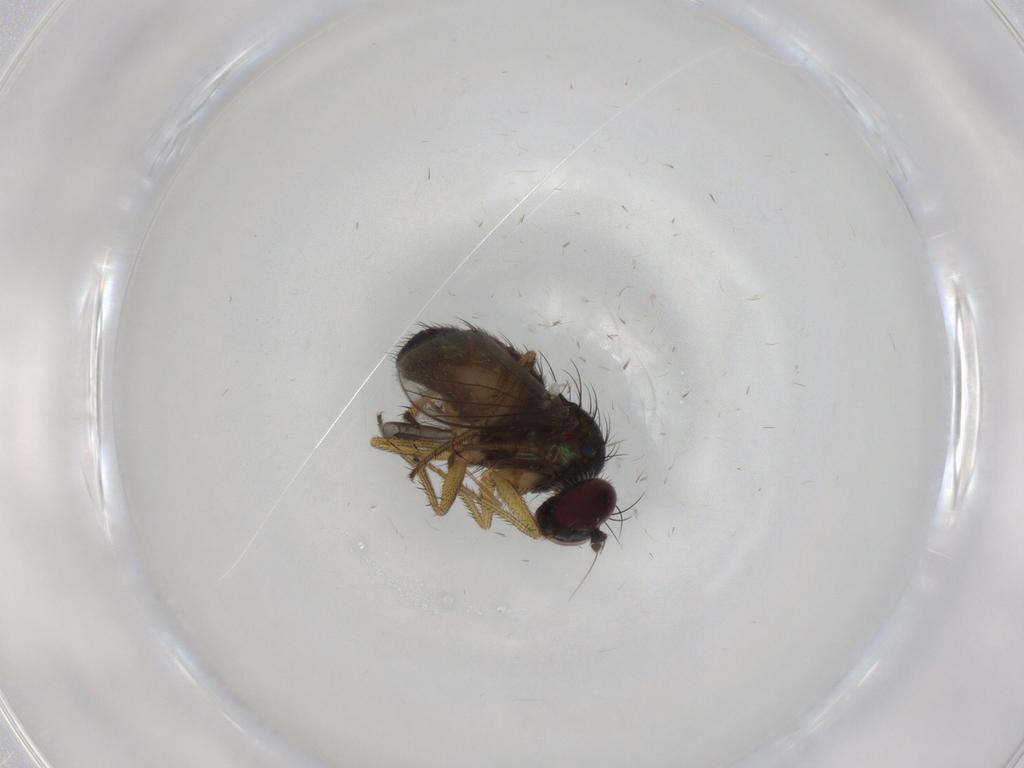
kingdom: Animalia
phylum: Arthropoda
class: Insecta
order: Diptera
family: Dolichopodidae
